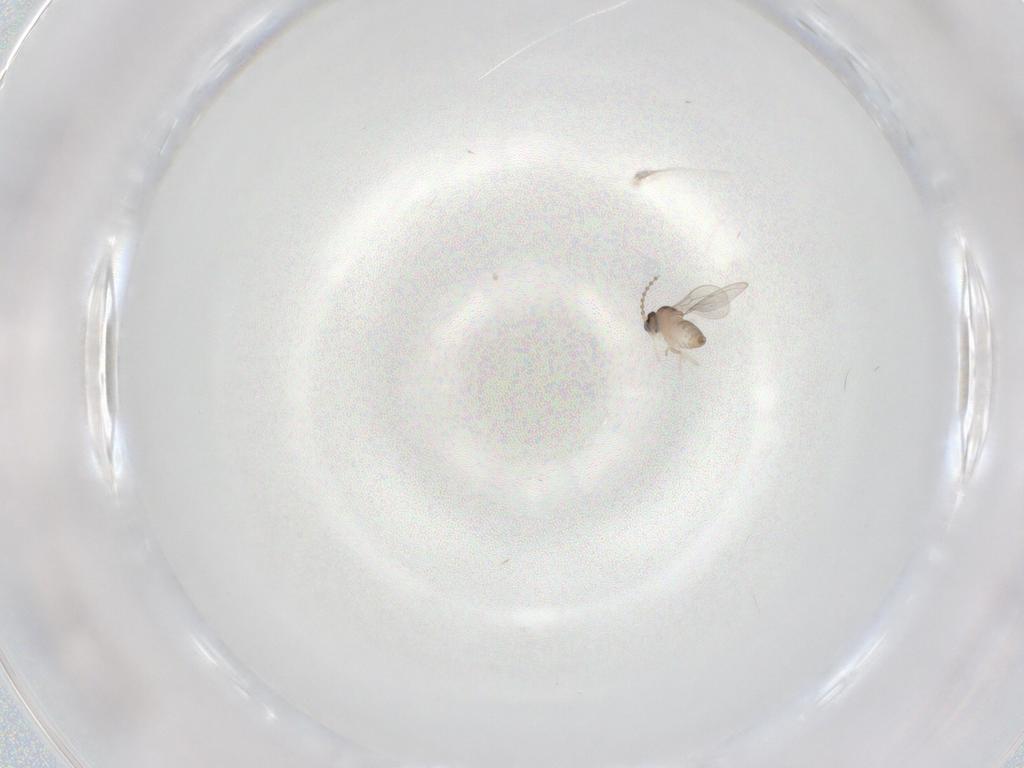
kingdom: Animalia
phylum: Arthropoda
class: Insecta
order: Diptera
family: Cecidomyiidae
